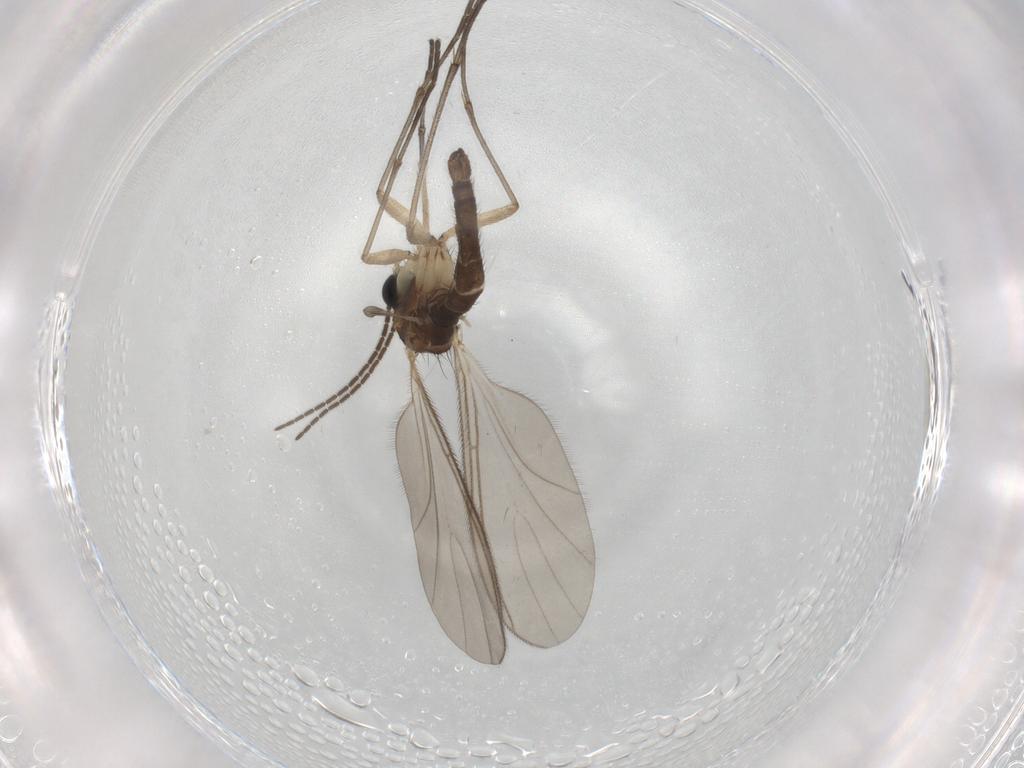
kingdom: Animalia
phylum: Arthropoda
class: Insecta
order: Diptera
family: Sciaridae
